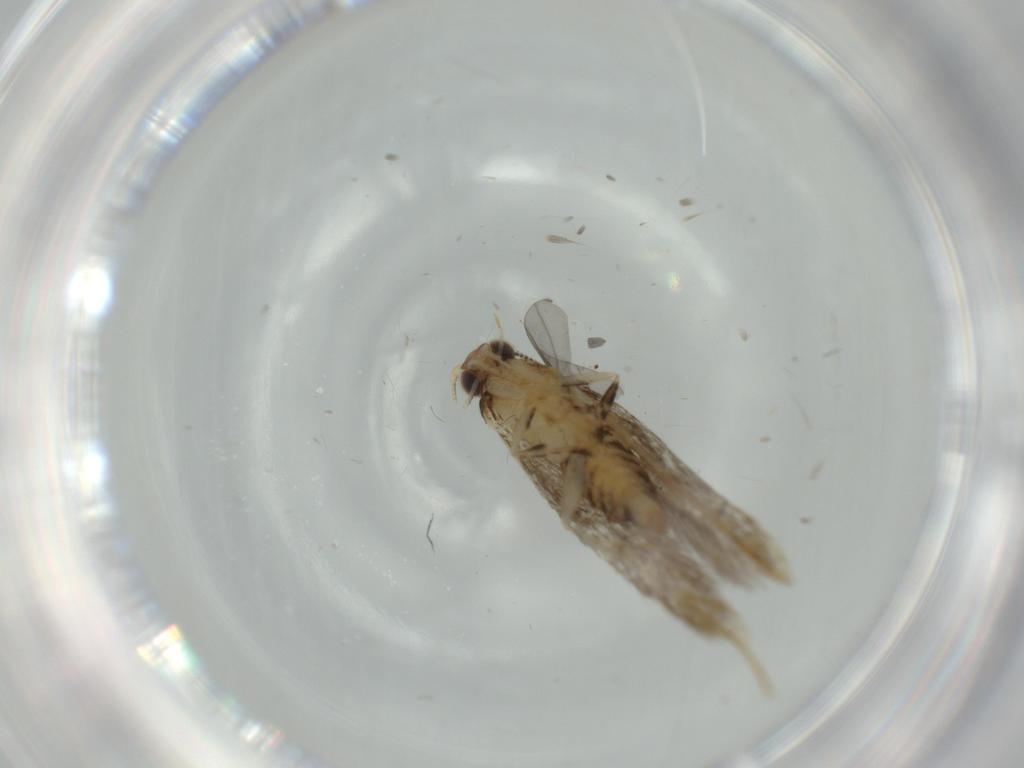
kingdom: Animalia
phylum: Arthropoda
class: Insecta
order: Lepidoptera
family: Tineidae
